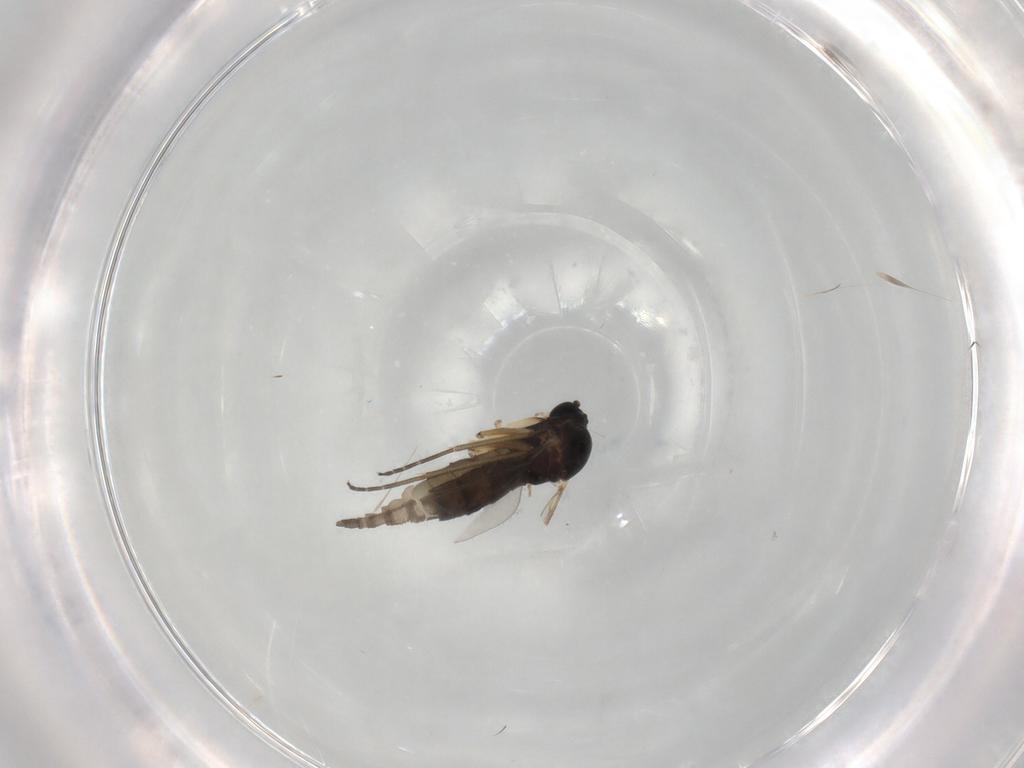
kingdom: Animalia
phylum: Arthropoda
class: Insecta
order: Diptera
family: Sciaridae
